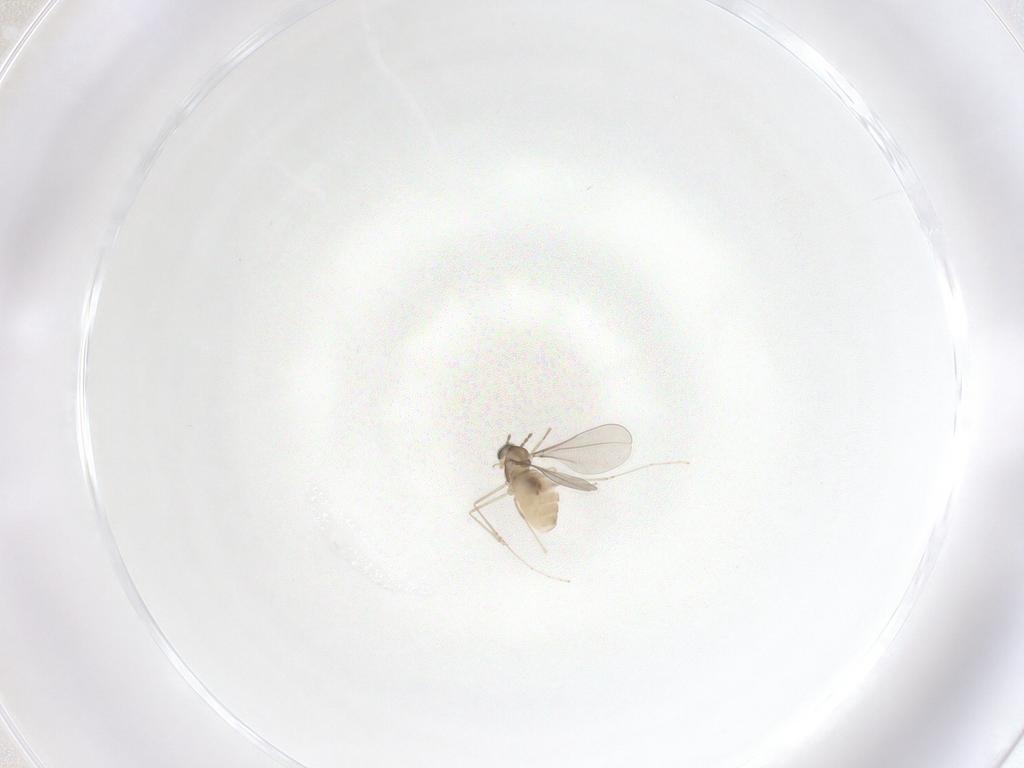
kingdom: Animalia
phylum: Arthropoda
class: Insecta
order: Diptera
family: Cecidomyiidae
